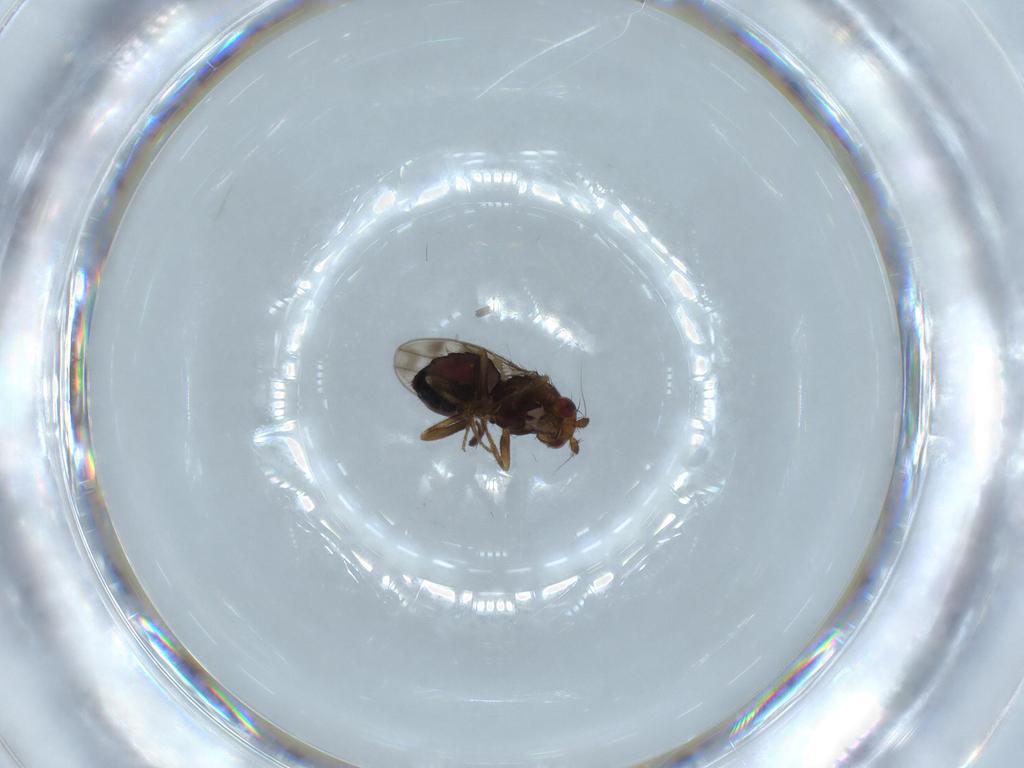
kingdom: Animalia
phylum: Arthropoda
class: Insecta
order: Diptera
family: Sphaeroceridae
